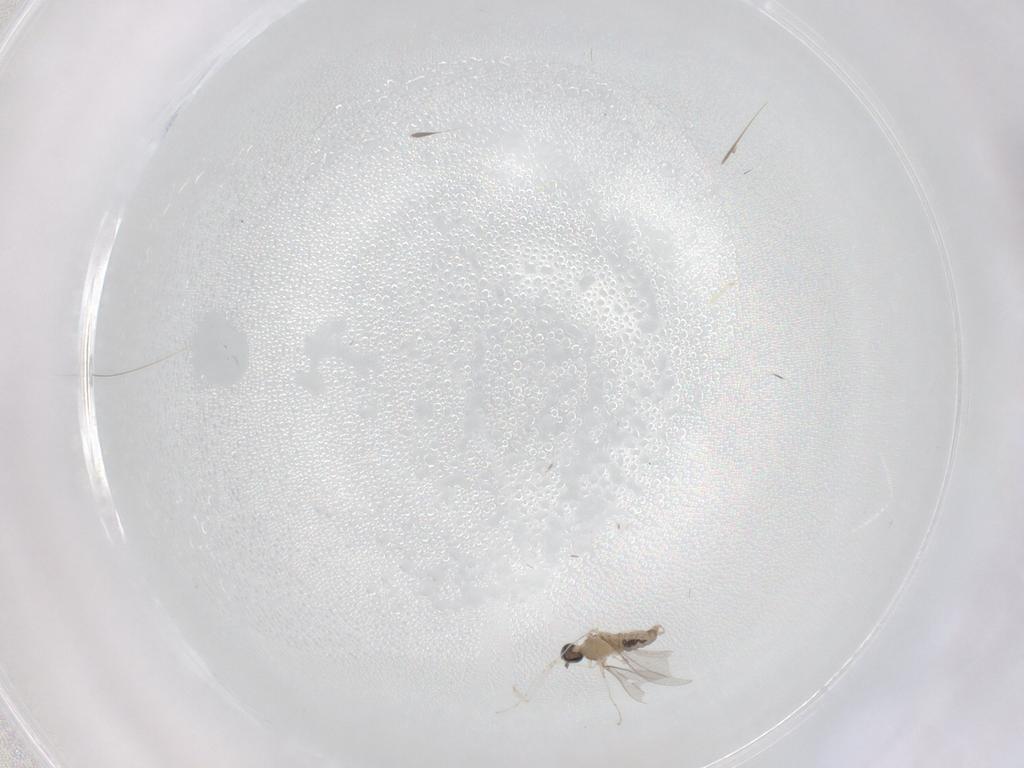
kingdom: Animalia
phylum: Arthropoda
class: Insecta
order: Diptera
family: Cecidomyiidae
